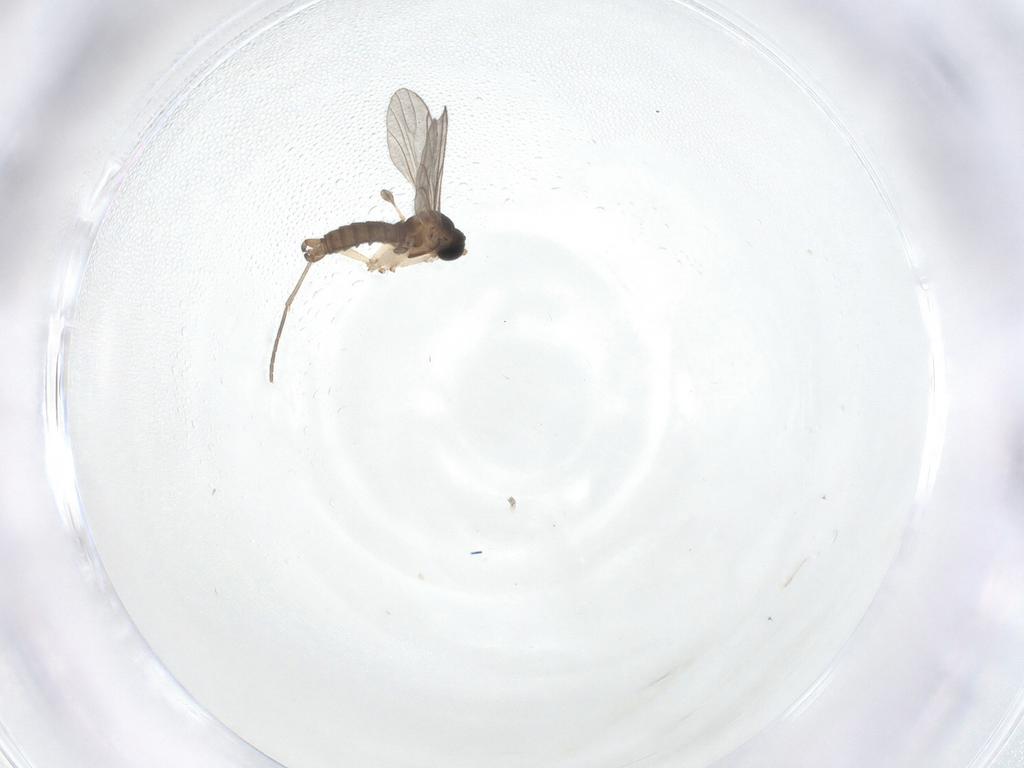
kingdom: Animalia
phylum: Arthropoda
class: Insecta
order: Diptera
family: Sciaridae
